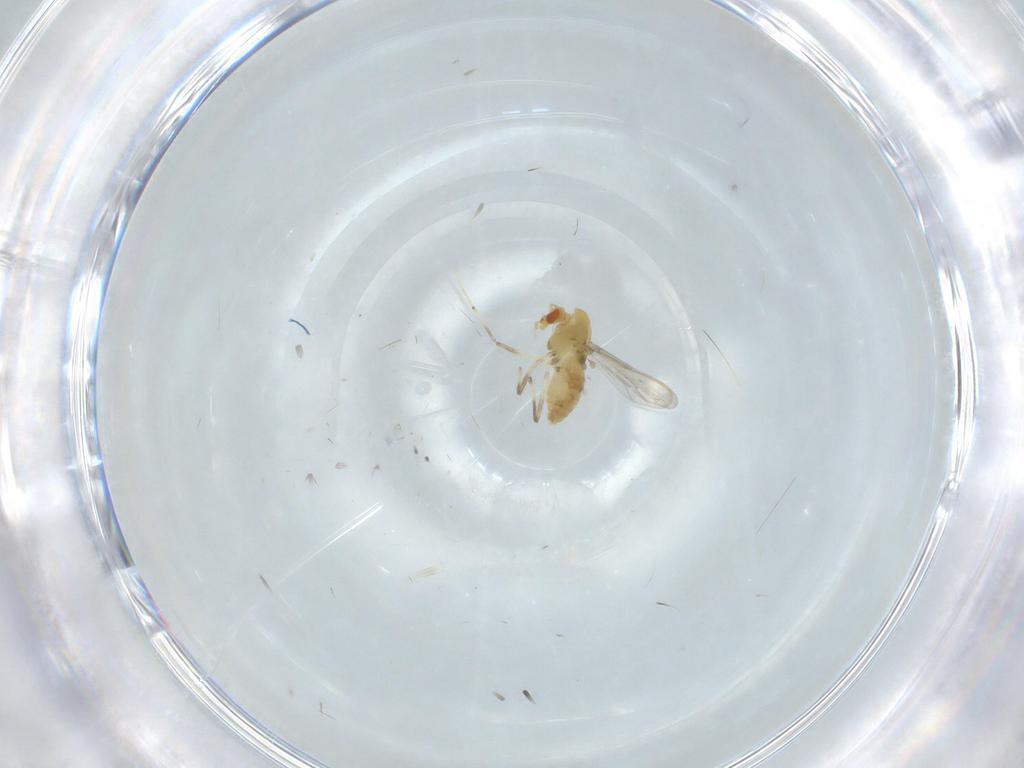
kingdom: Animalia
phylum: Arthropoda
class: Insecta
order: Diptera
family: Chironomidae
